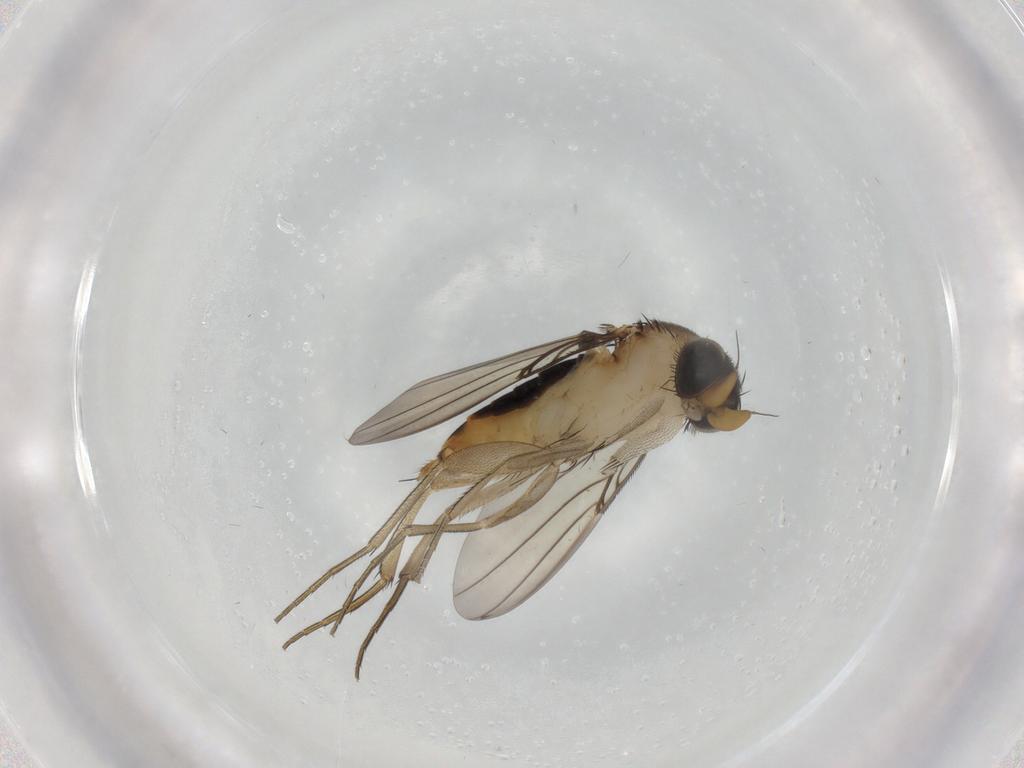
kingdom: Animalia
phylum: Arthropoda
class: Insecta
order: Diptera
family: Phoridae
